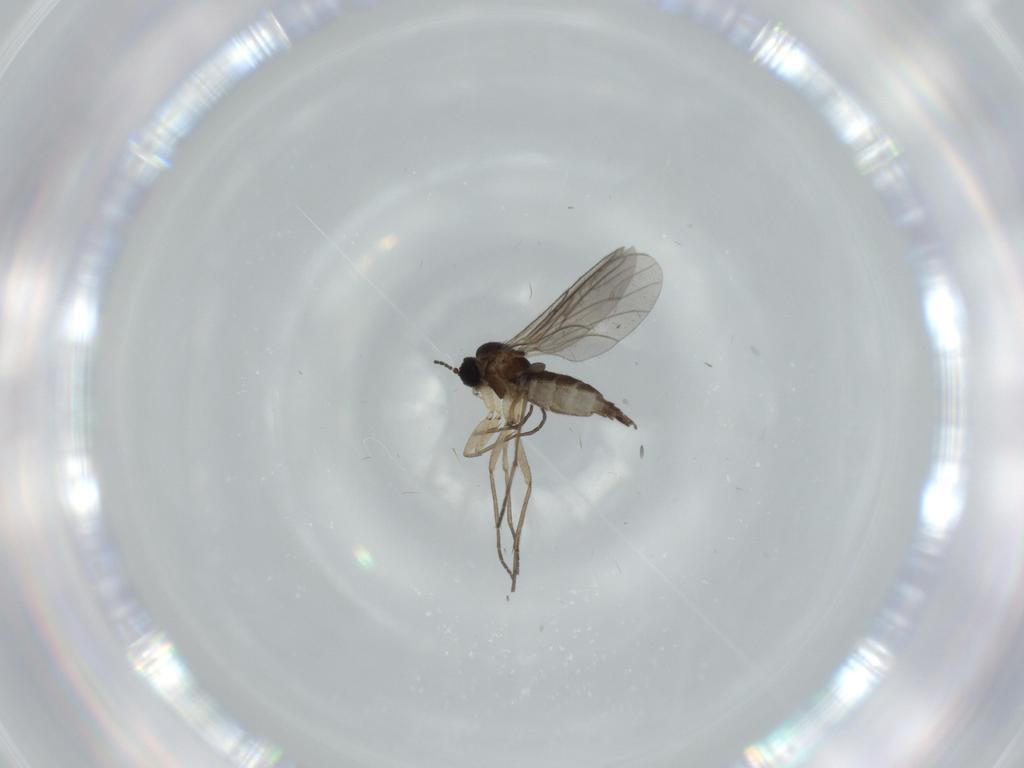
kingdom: Animalia
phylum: Arthropoda
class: Insecta
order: Diptera
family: Sciaridae
